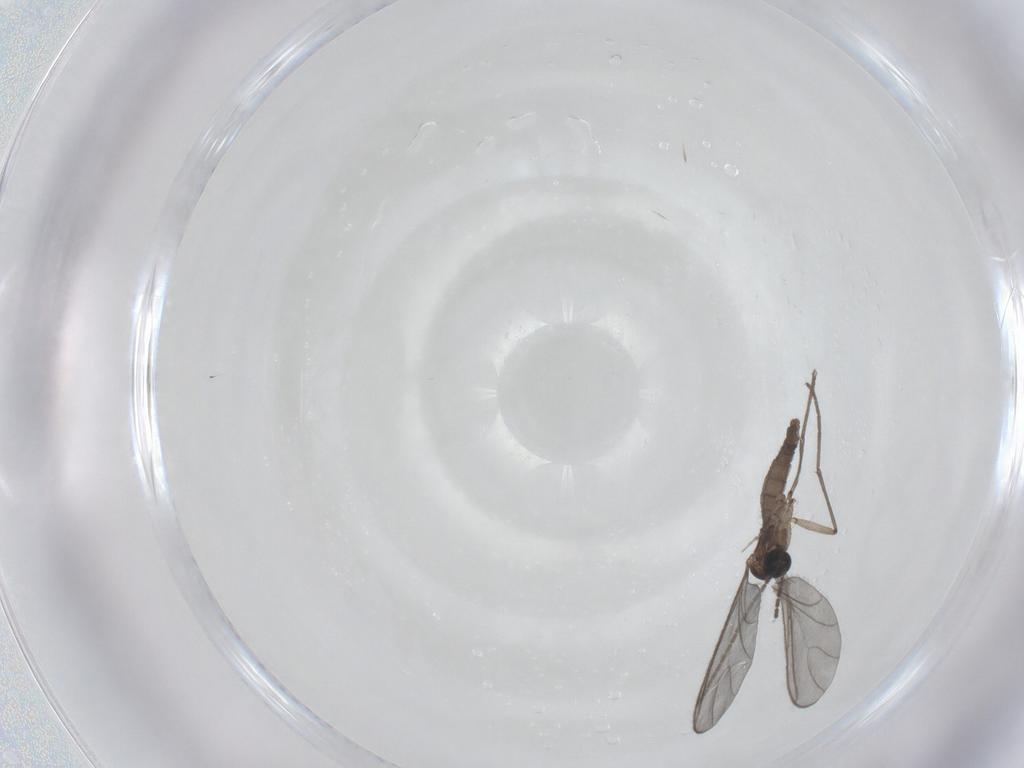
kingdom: Animalia
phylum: Arthropoda
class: Insecta
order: Diptera
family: Sciaridae
